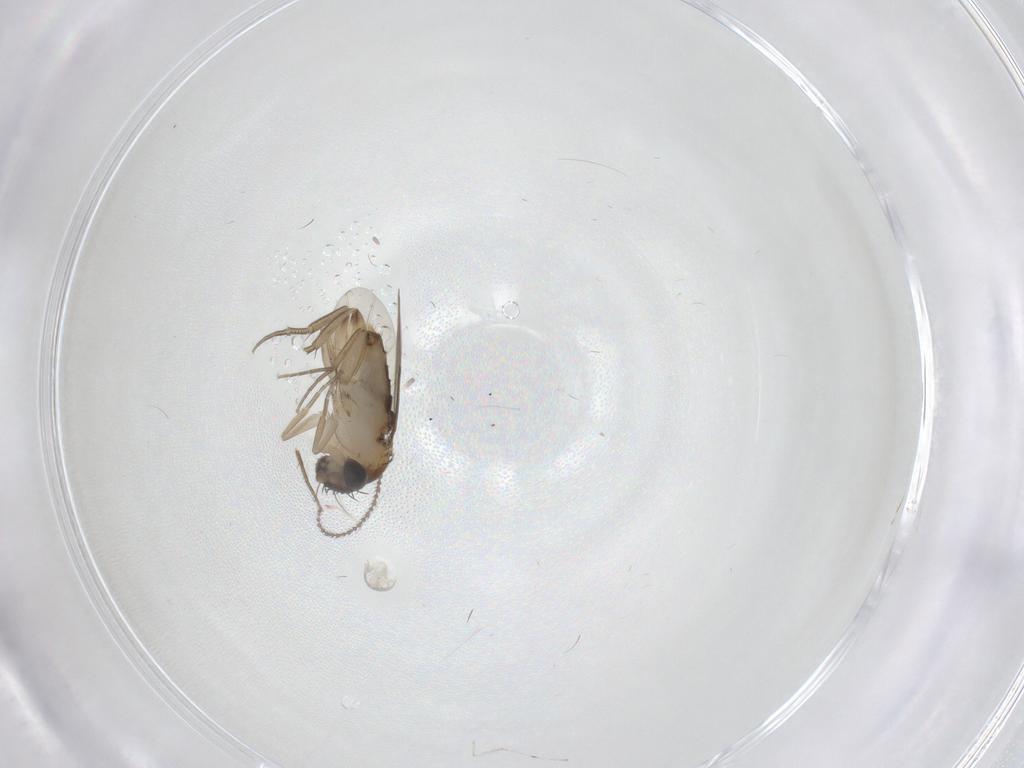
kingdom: Animalia
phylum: Arthropoda
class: Insecta
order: Diptera
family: Phoridae
